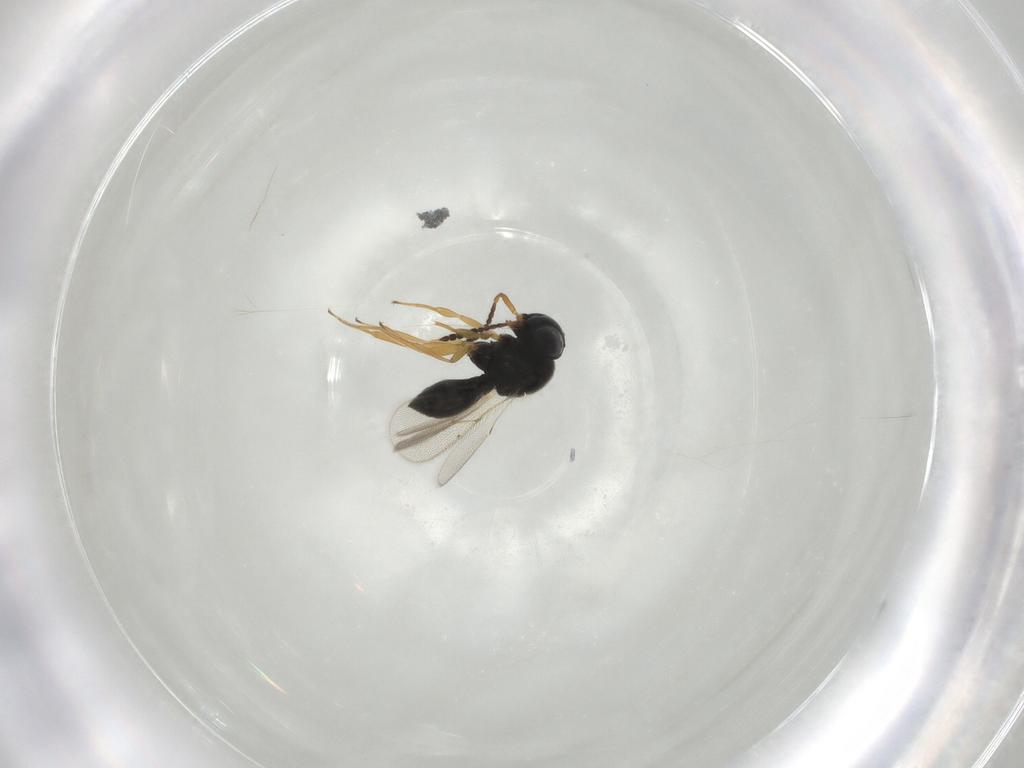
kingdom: Animalia
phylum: Arthropoda
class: Insecta
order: Hymenoptera
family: Scelionidae
